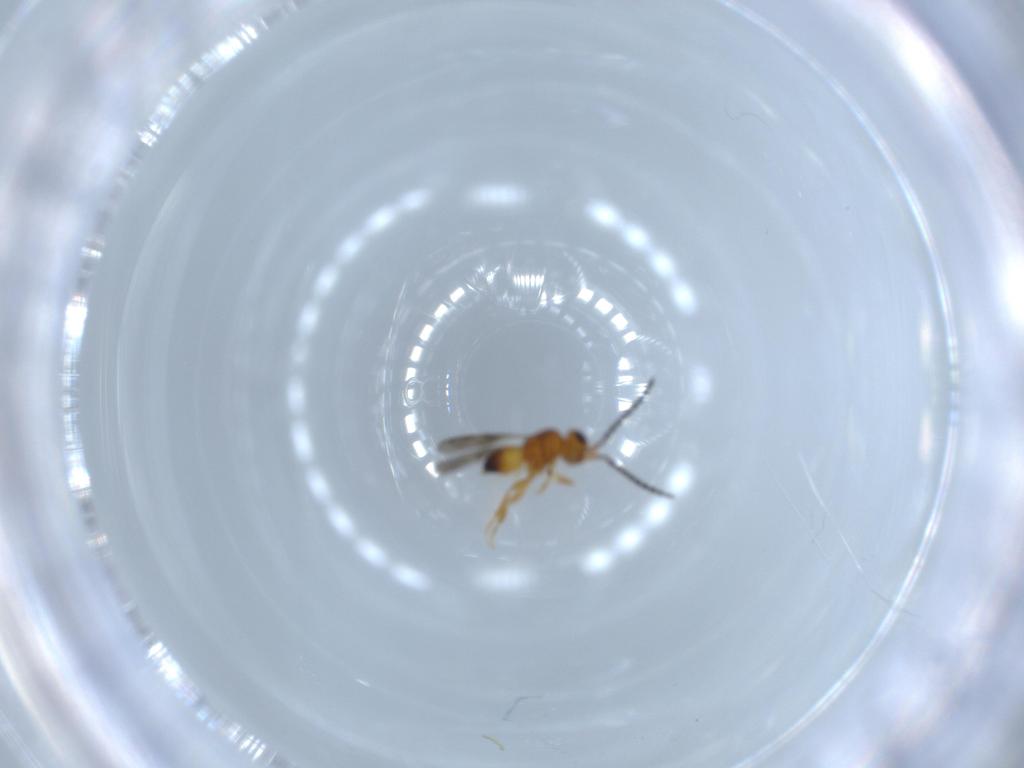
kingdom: Animalia
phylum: Arthropoda
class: Insecta
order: Hymenoptera
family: Ceraphronidae
